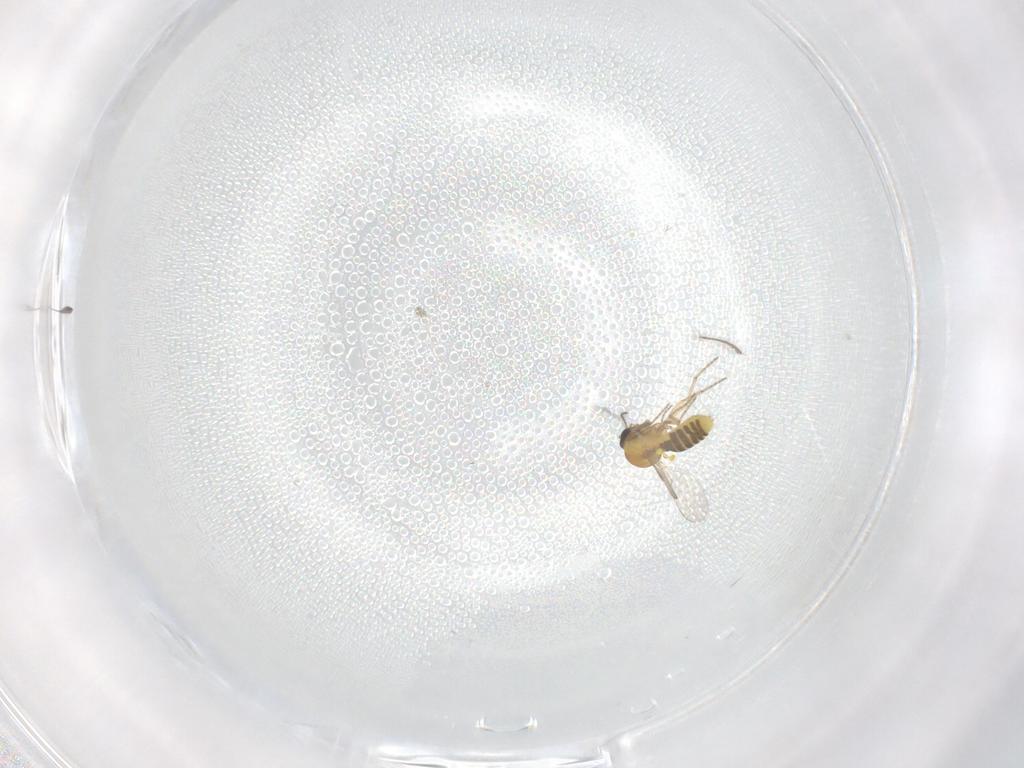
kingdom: Animalia
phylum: Arthropoda
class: Insecta
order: Diptera
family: Ceratopogonidae
